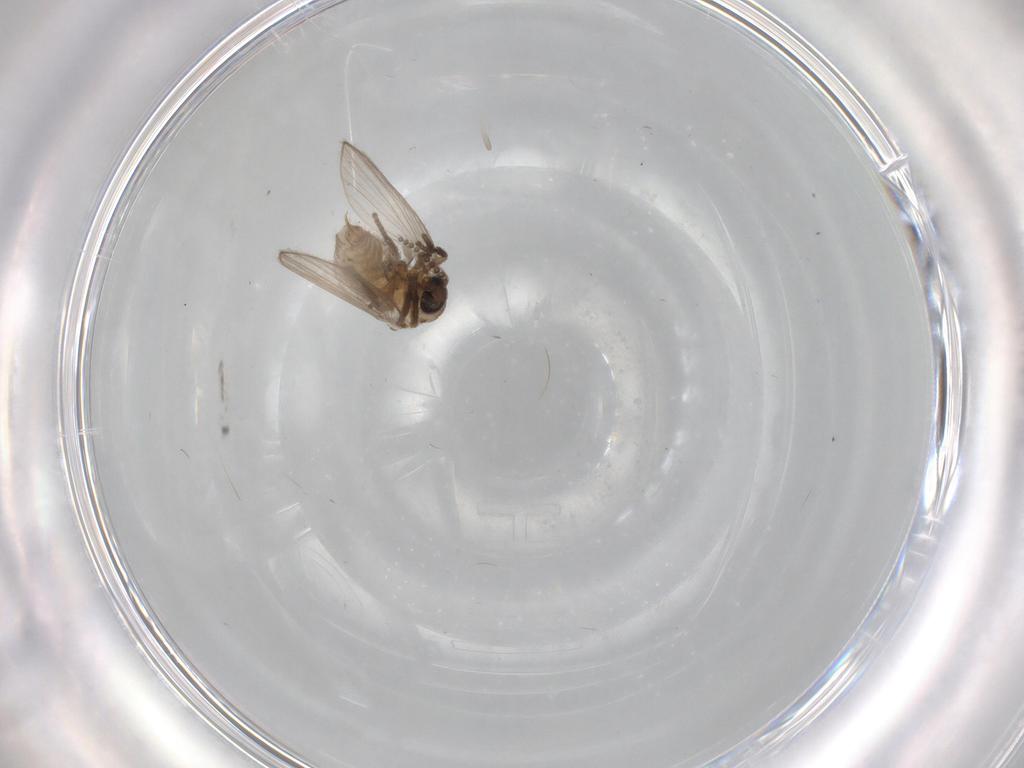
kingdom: Animalia
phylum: Arthropoda
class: Insecta
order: Diptera
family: Psychodidae
